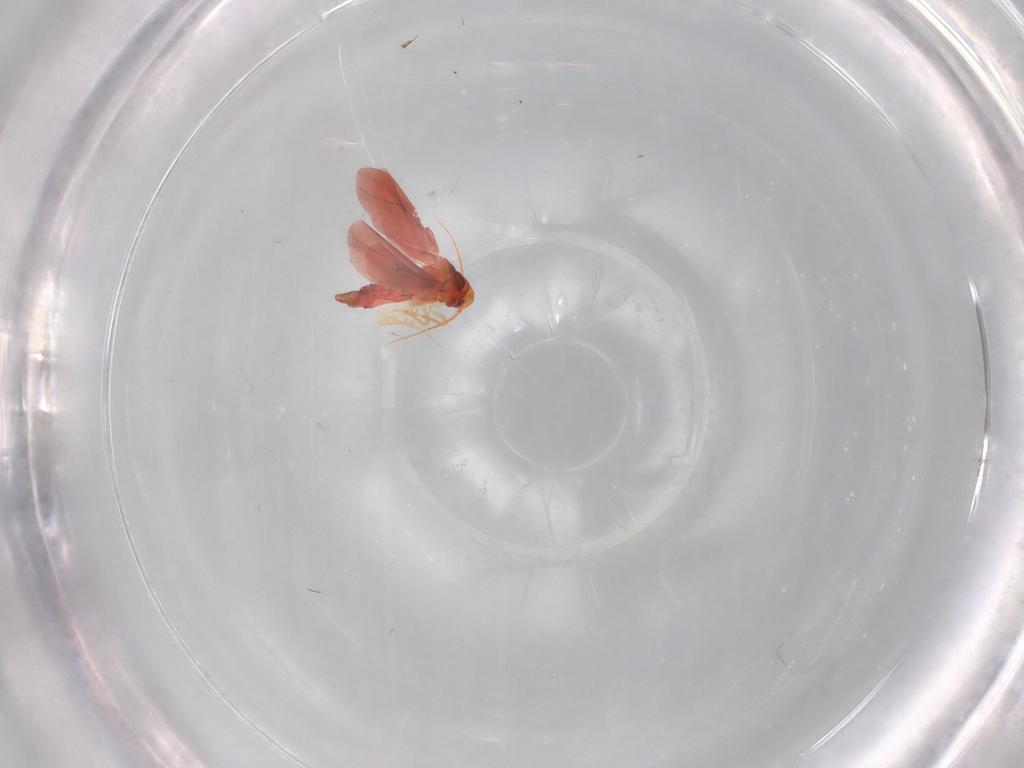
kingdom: Animalia
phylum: Arthropoda
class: Insecta
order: Hemiptera
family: Aleyrodidae
